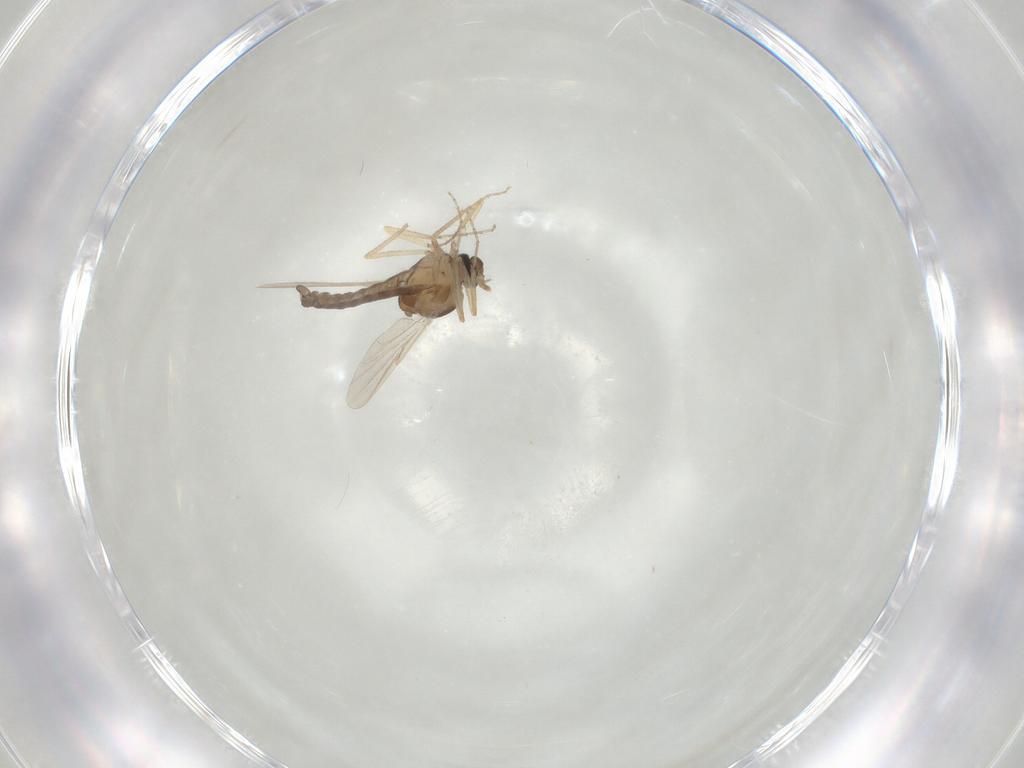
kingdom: Animalia
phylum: Arthropoda
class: Insecta
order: Diptera
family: Ceratopogonidae
